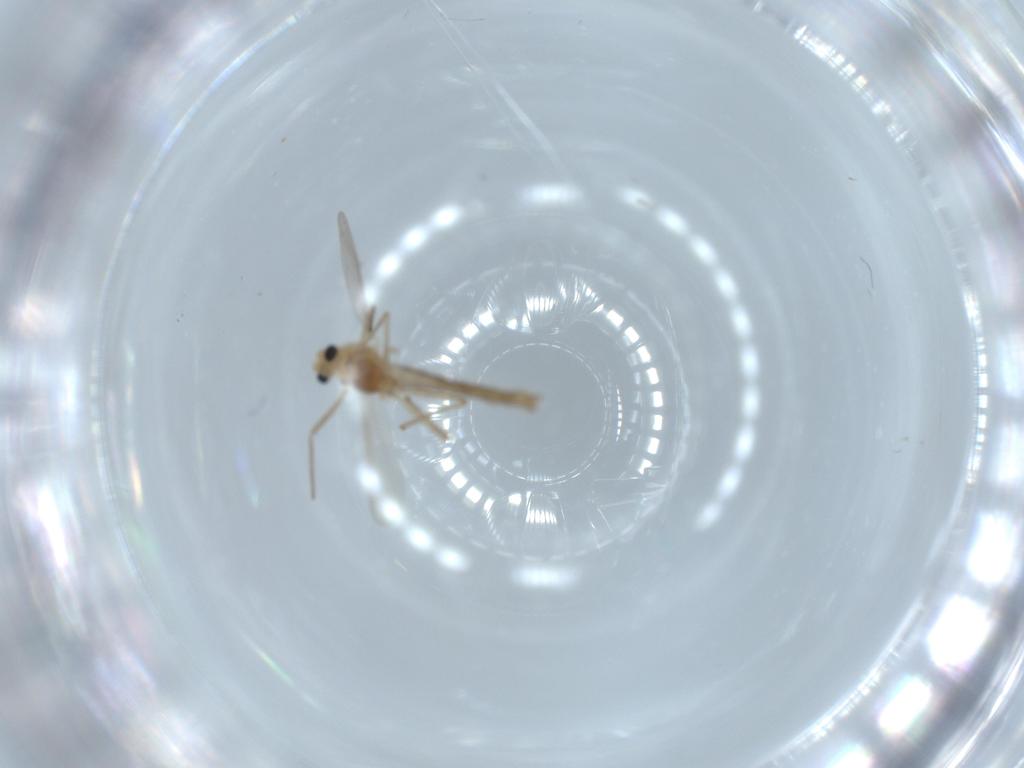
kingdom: Animalia
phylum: Arthropoda
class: Insecta
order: Diptera
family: Chironomidae
